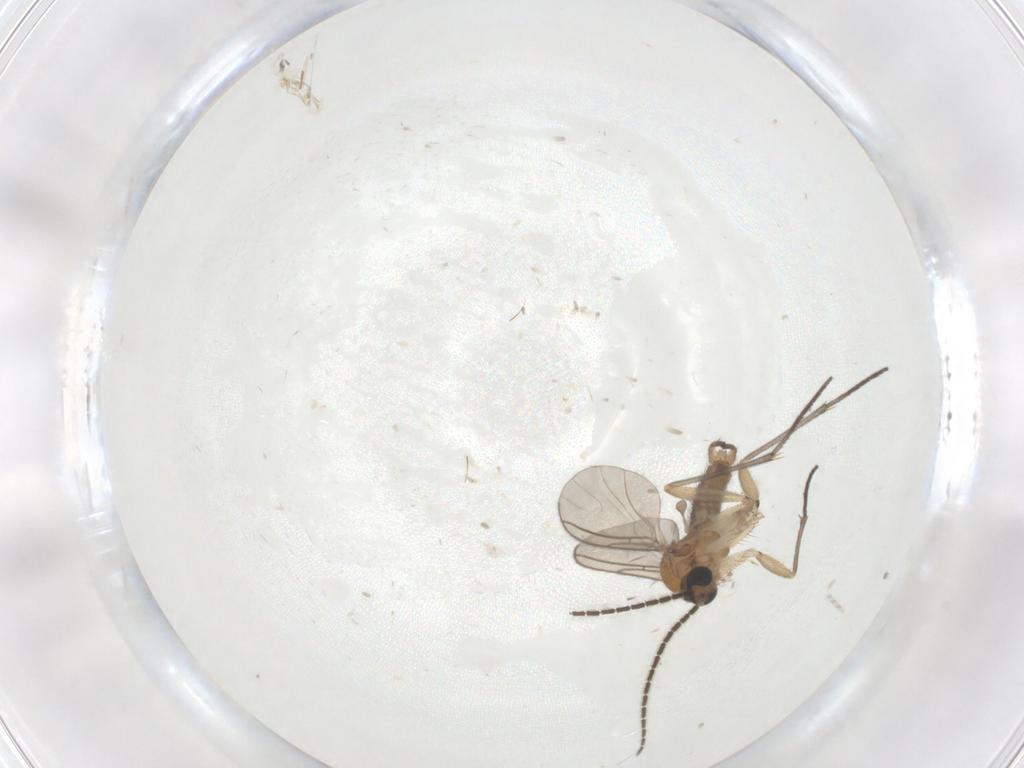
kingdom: Animalia
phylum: Arthropoda
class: Insecta
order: Diptera
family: Sciaridae
